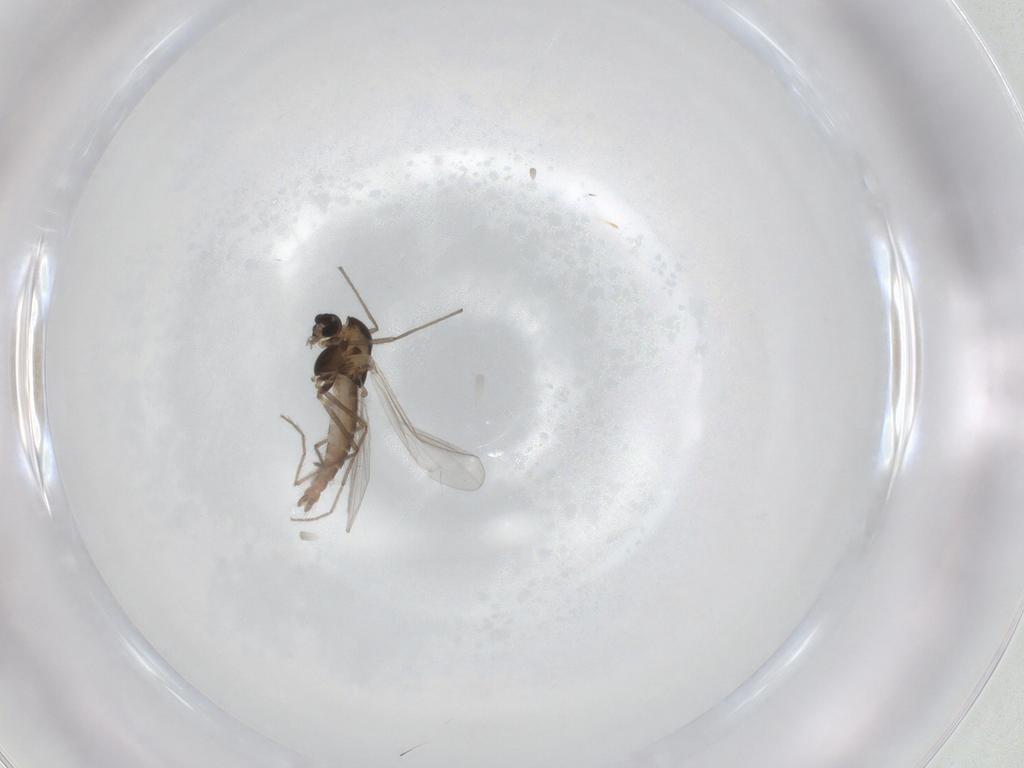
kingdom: Animalia
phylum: Arthropoda
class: Insecta
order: Diptera
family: Chironomidae
